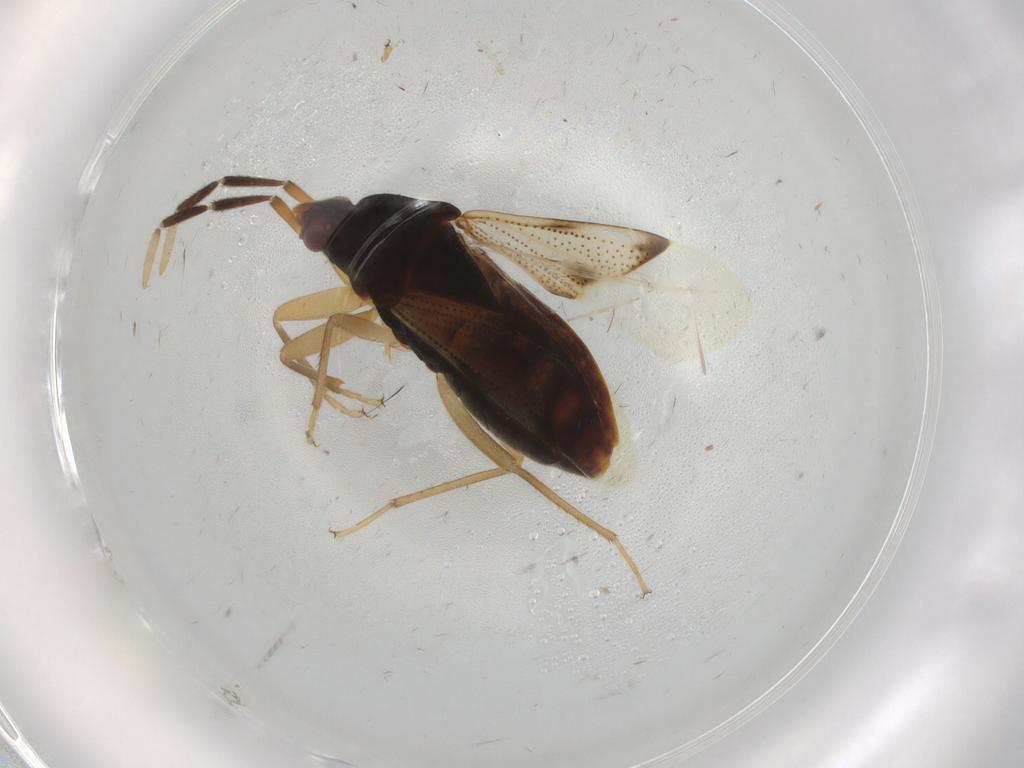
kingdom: Animalia
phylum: Arthropoda
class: Insecta
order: Hemiptera
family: Rhyparochromidae
